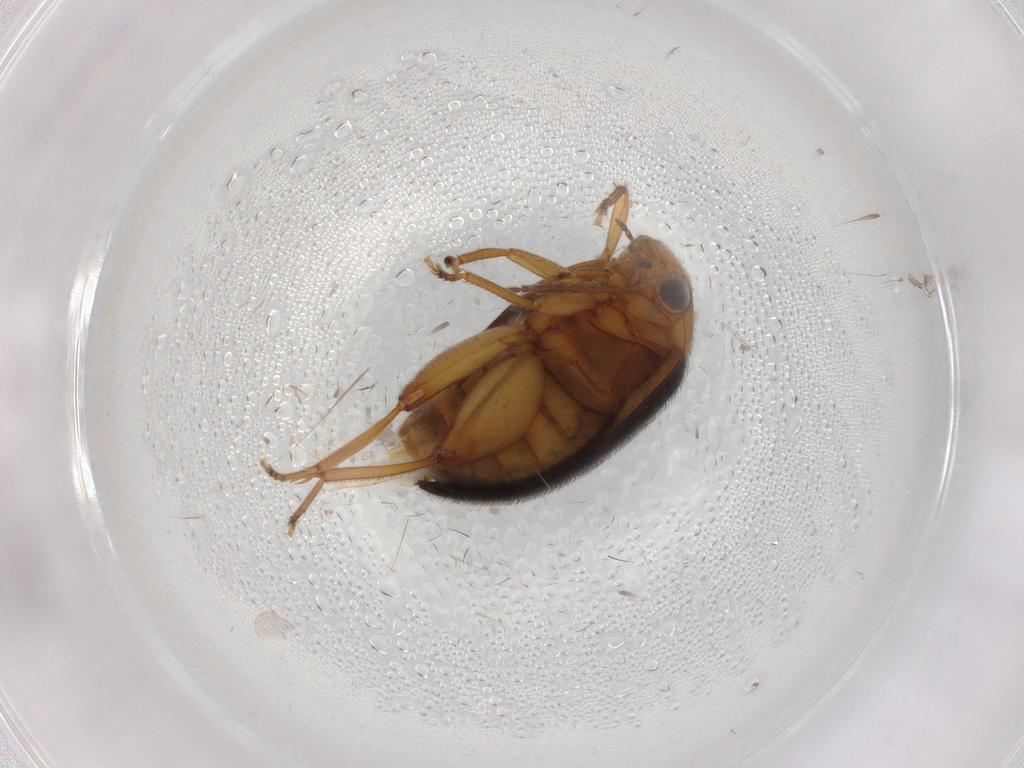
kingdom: Animalia
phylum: Arthropoda
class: Insecta
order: Coleoptera
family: Scirtidae
